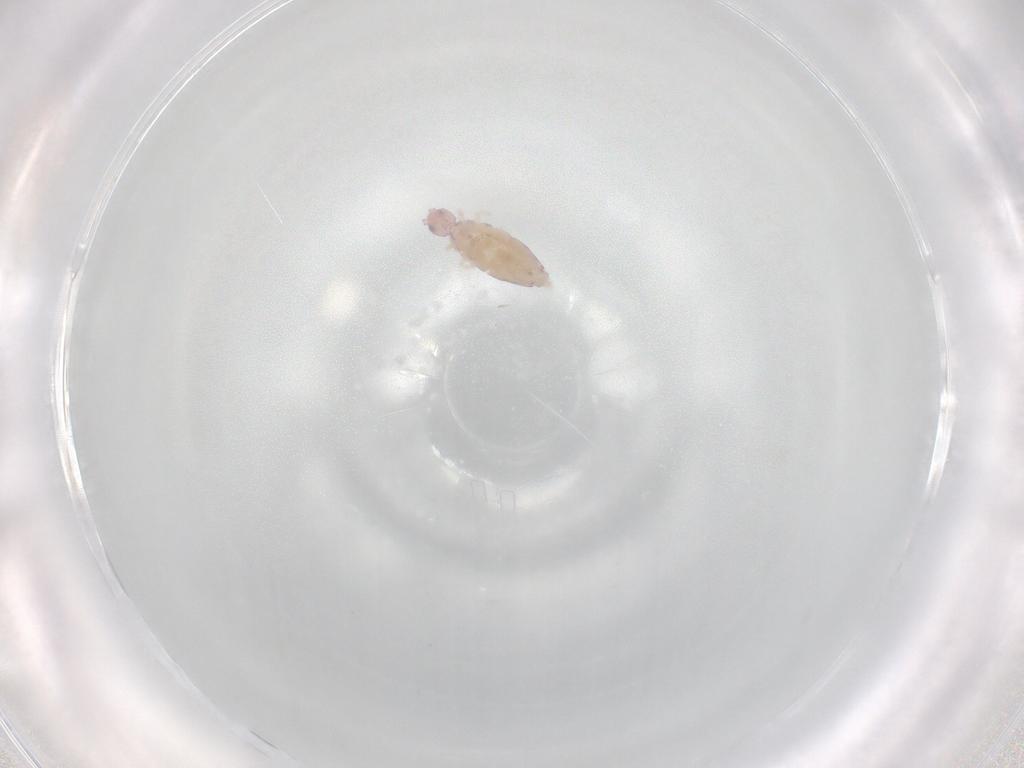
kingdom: Animalia
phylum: Arthropoda
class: Collembola
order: Entomobryomorpha
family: Entomobryidae
